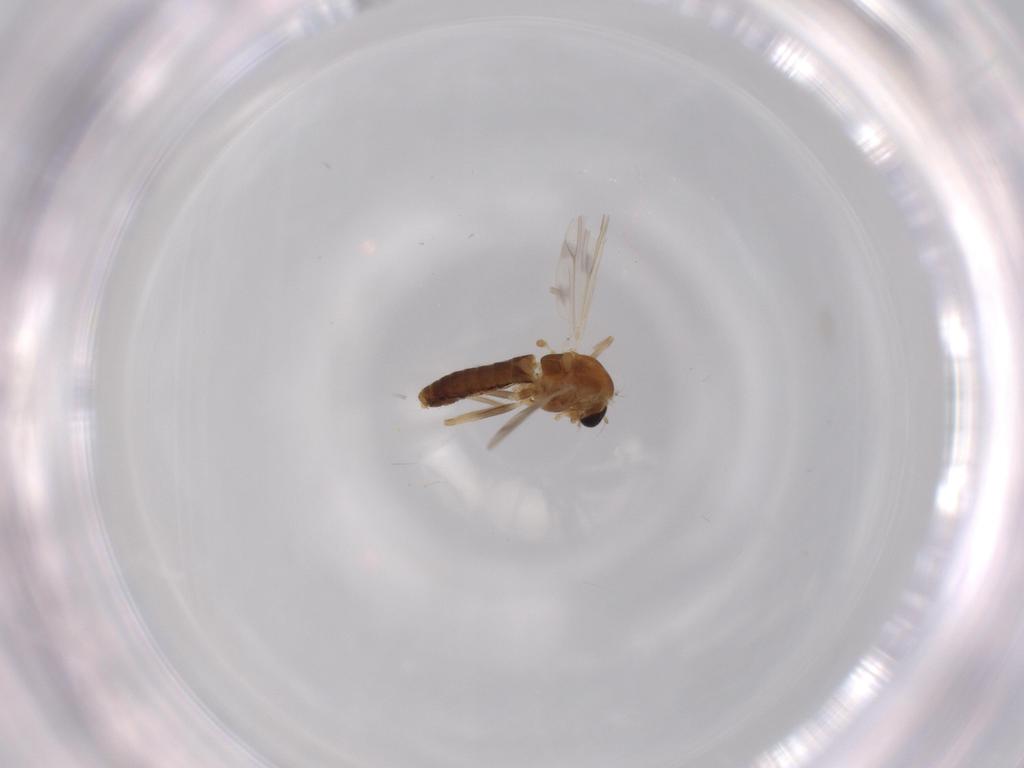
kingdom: Animalia
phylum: Arthropoda
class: Insecta
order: Diptera
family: Chironomidae
